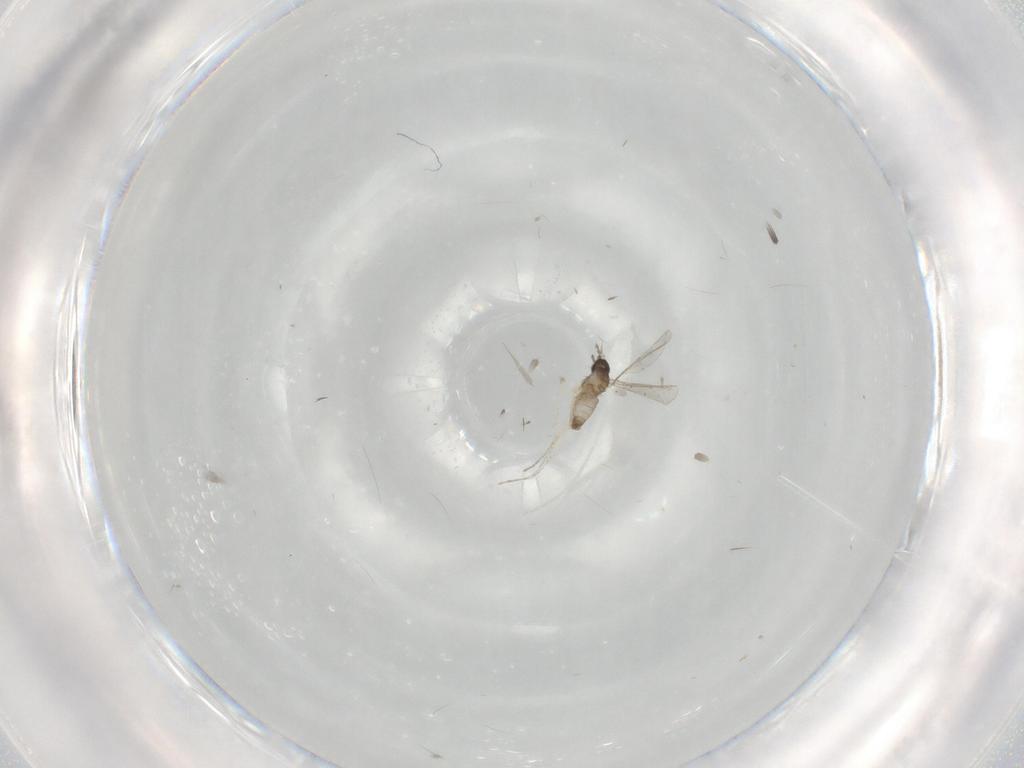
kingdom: Animalia
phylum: Arthropoda
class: Insecta
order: Diptera
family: Cecidomyiidae
